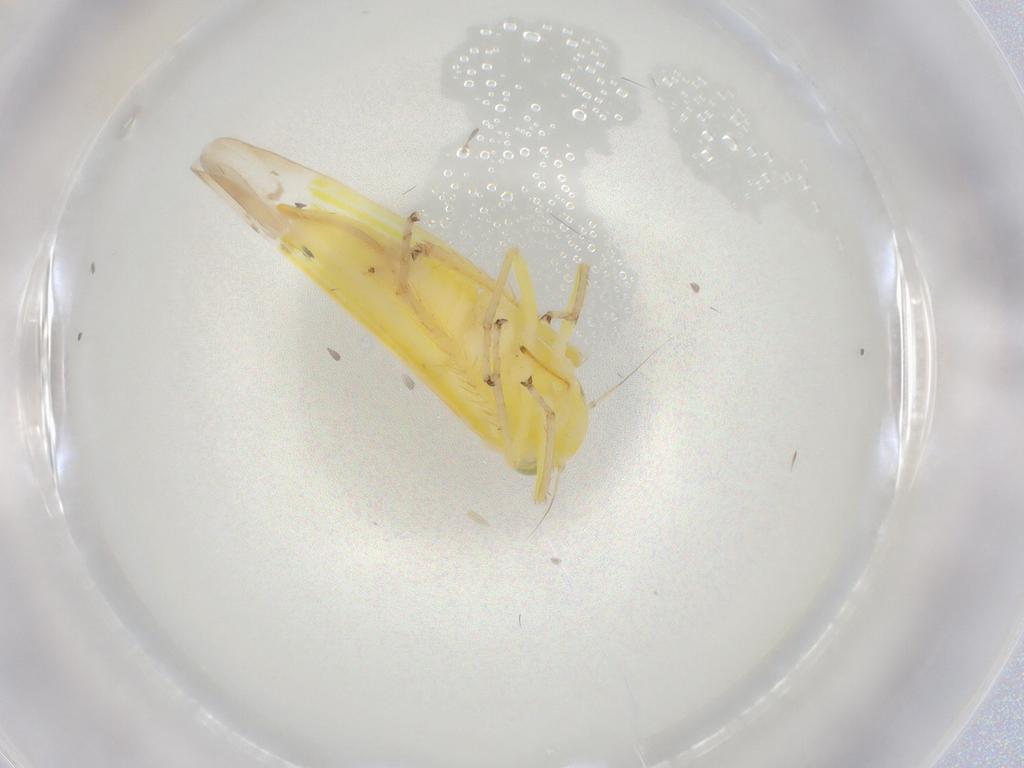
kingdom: Animalia
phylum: Arthropoda
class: Insecta
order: Hemiptera
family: Cicadellidae
